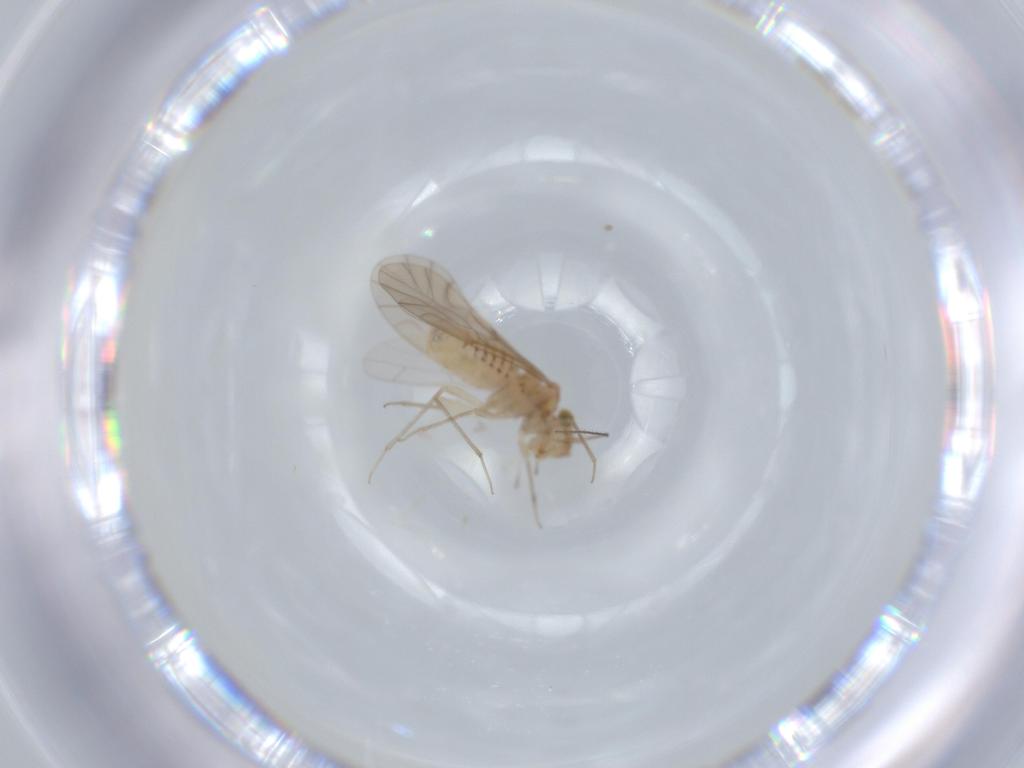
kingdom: Animalia
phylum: Arthropoda
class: Insecta
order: Psocodea
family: Lachesillidae
